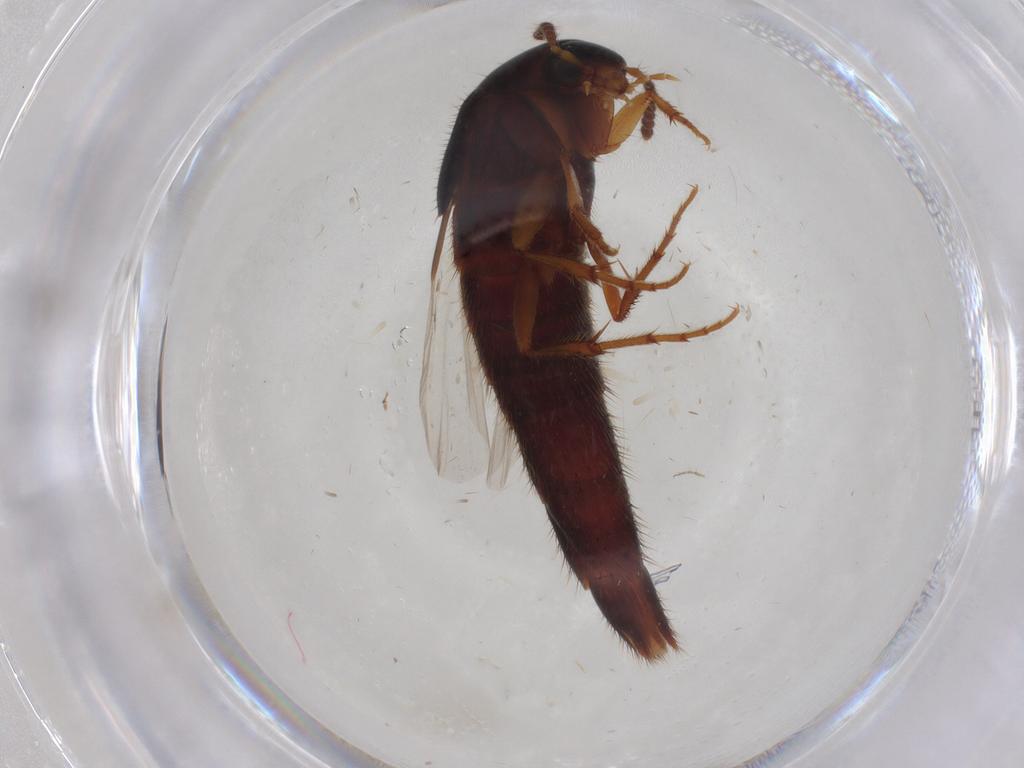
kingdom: Animalia
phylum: Arthropoda
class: Insecta
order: Coleoptera
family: Staphylinidae
